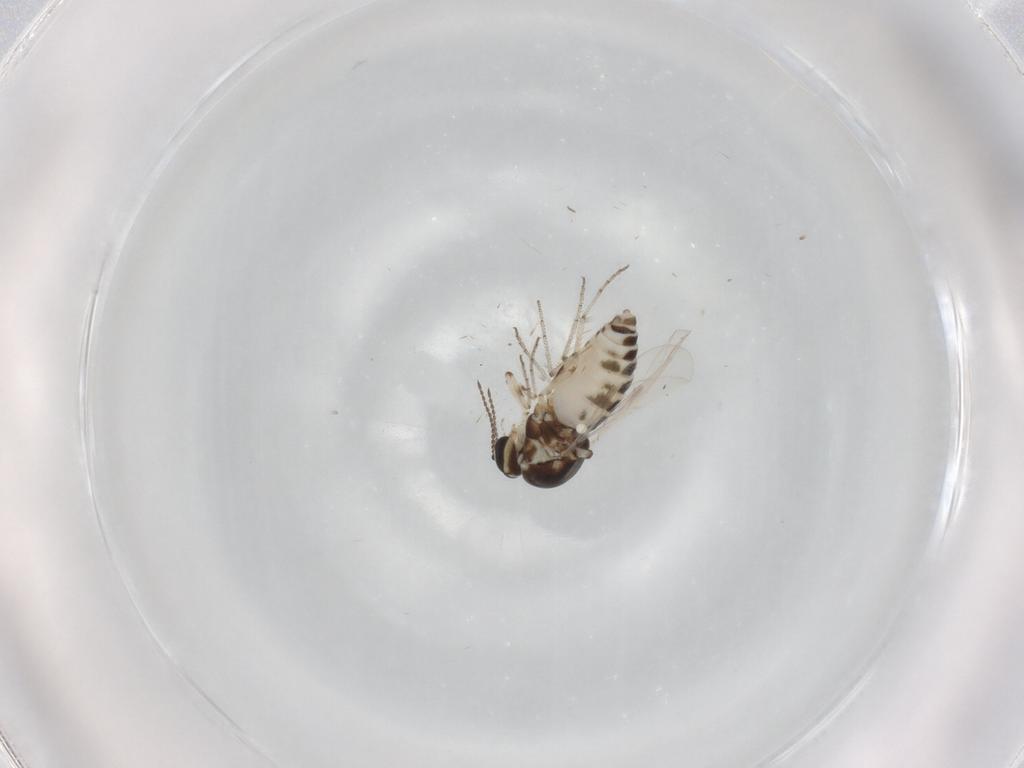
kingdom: Animalia
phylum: Arthropoda
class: Insecta
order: Diptera
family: Ceratopogonidae
